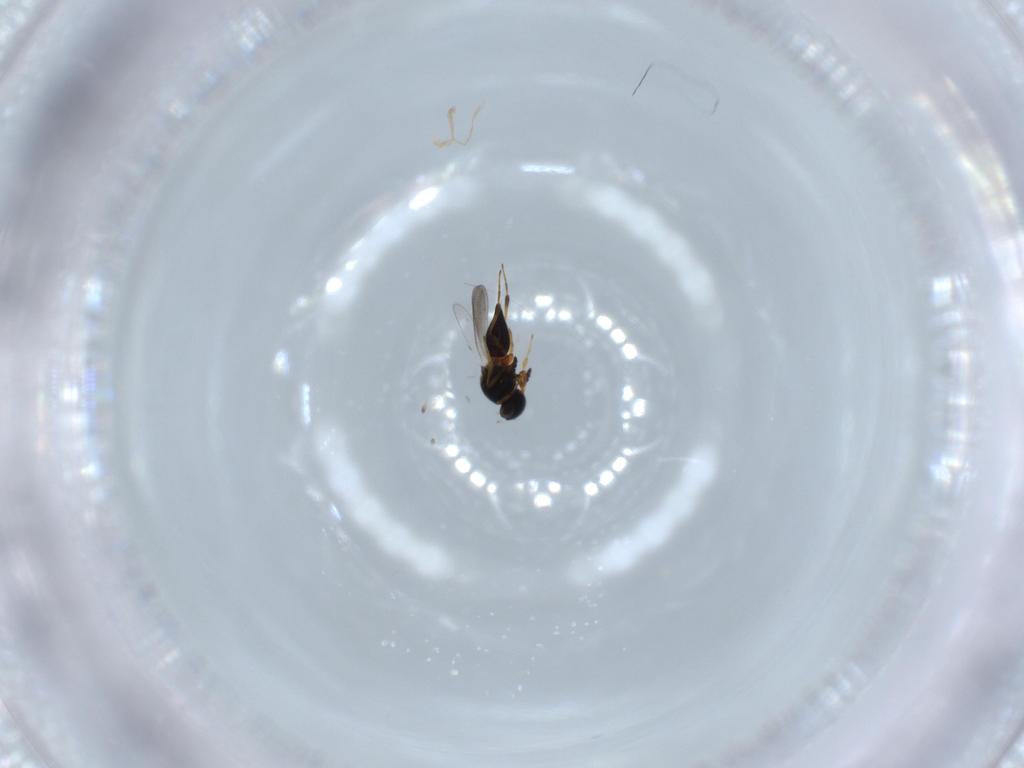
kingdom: Animalia
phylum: Arthropoda
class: Insecta
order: Hymenoptera
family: Platygastridae
